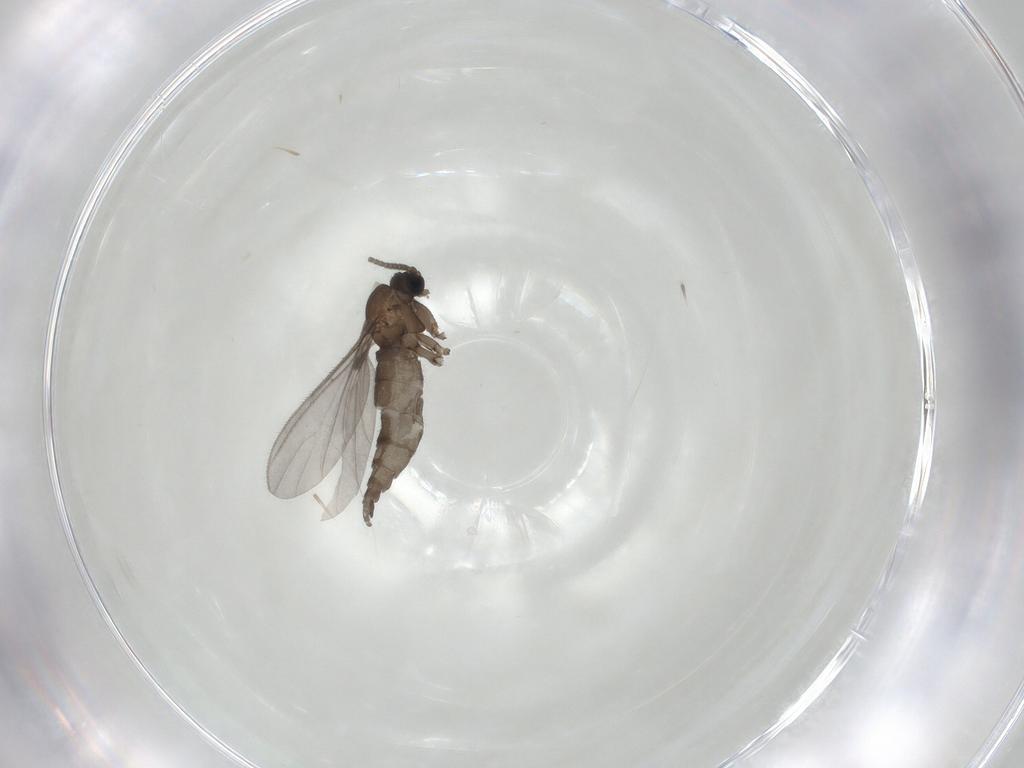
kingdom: Animalia
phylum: Arthropoda
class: Insecta
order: Diptera
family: Sciaridae
